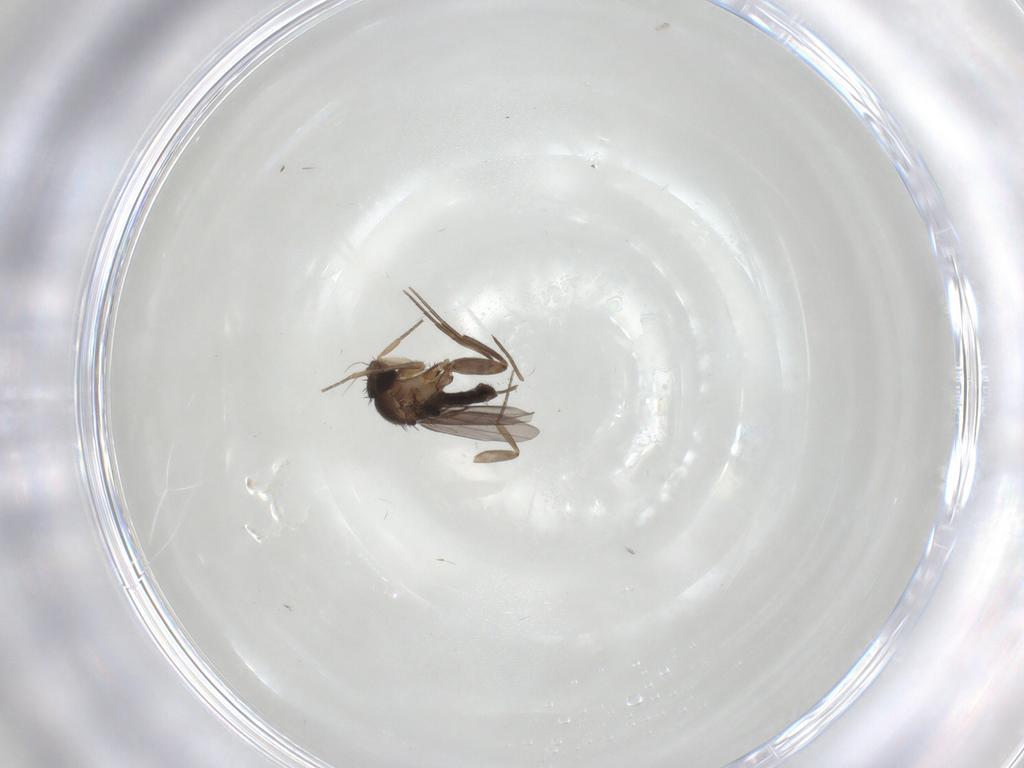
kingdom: Animalia
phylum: Arthropoda
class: Insecta
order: Diptera
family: Phoridae
